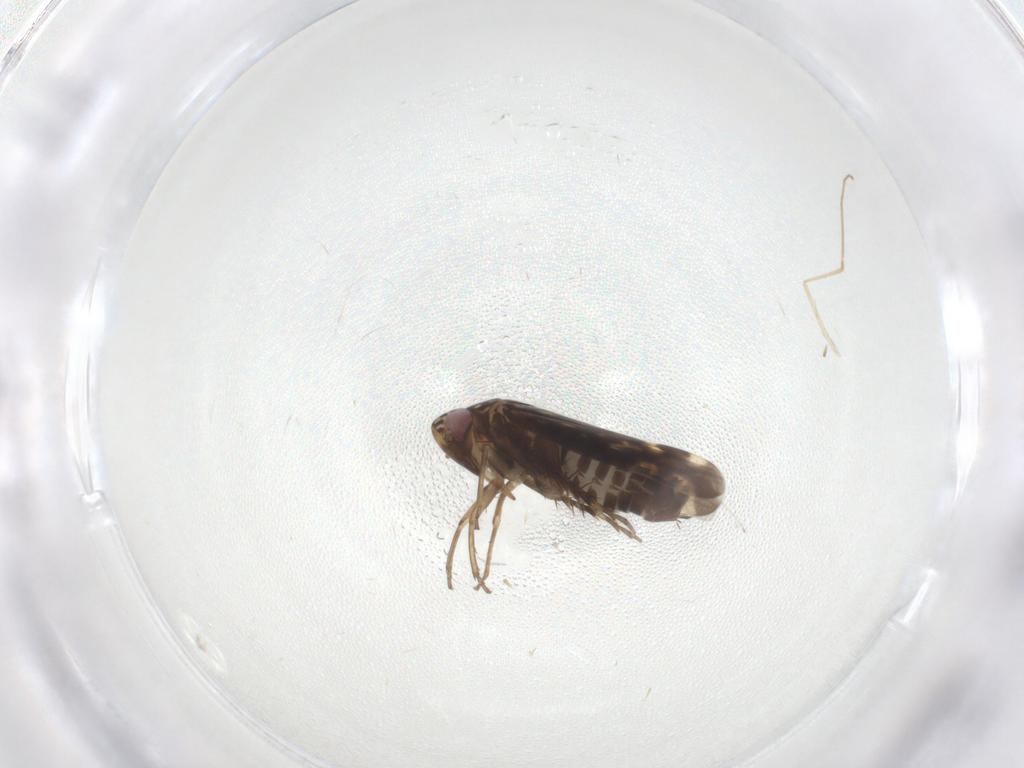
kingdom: Animalia
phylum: Arthropoda
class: Insecta
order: Hemiptera
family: Cicadellidae
